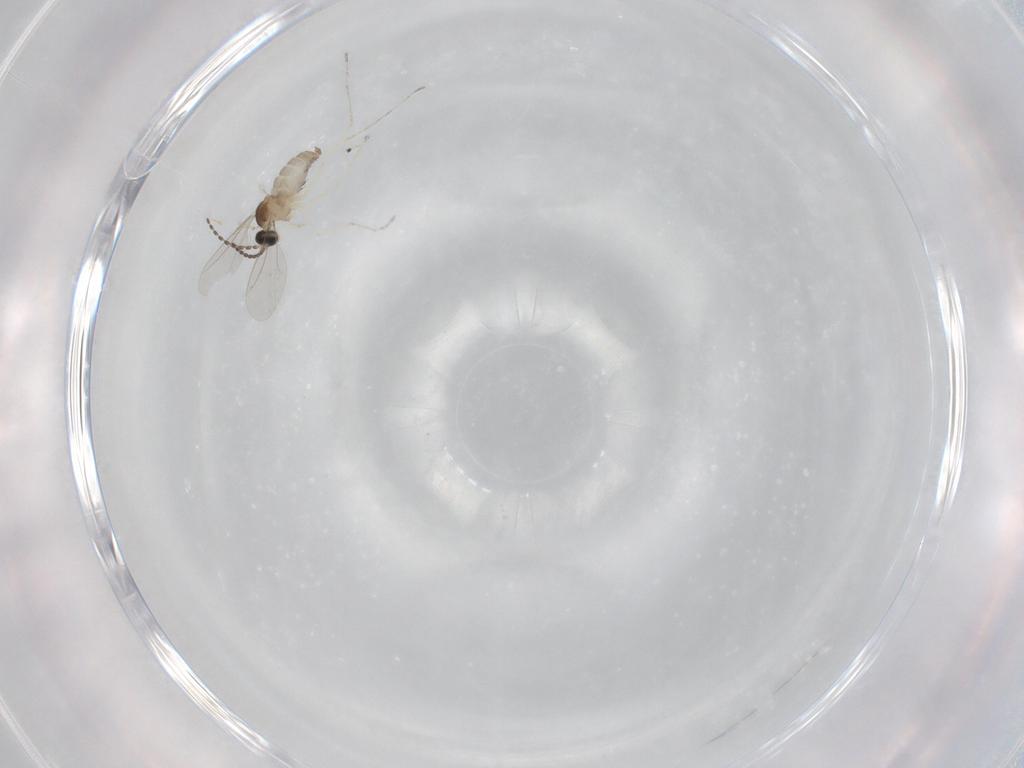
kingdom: Animalia
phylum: Arthropoda
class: Insecta
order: Diptera
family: Cecidomyiidae
